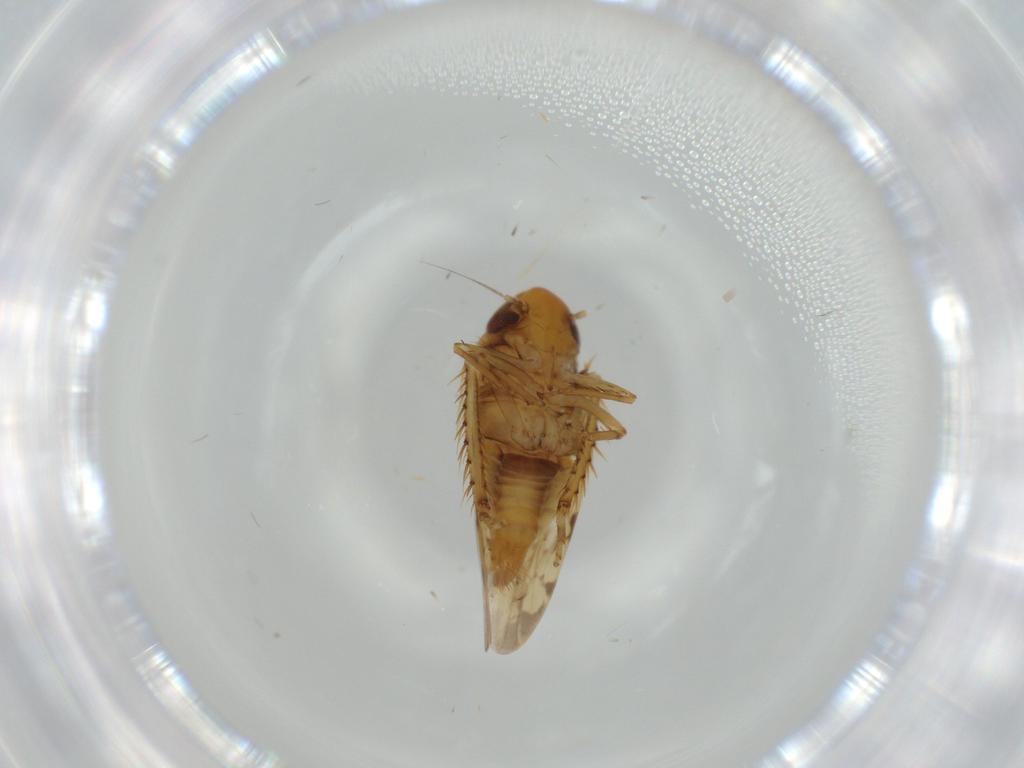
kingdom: Animalia
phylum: Arthropoda
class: Insecta
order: Hemiptera
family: Cicadellidae
